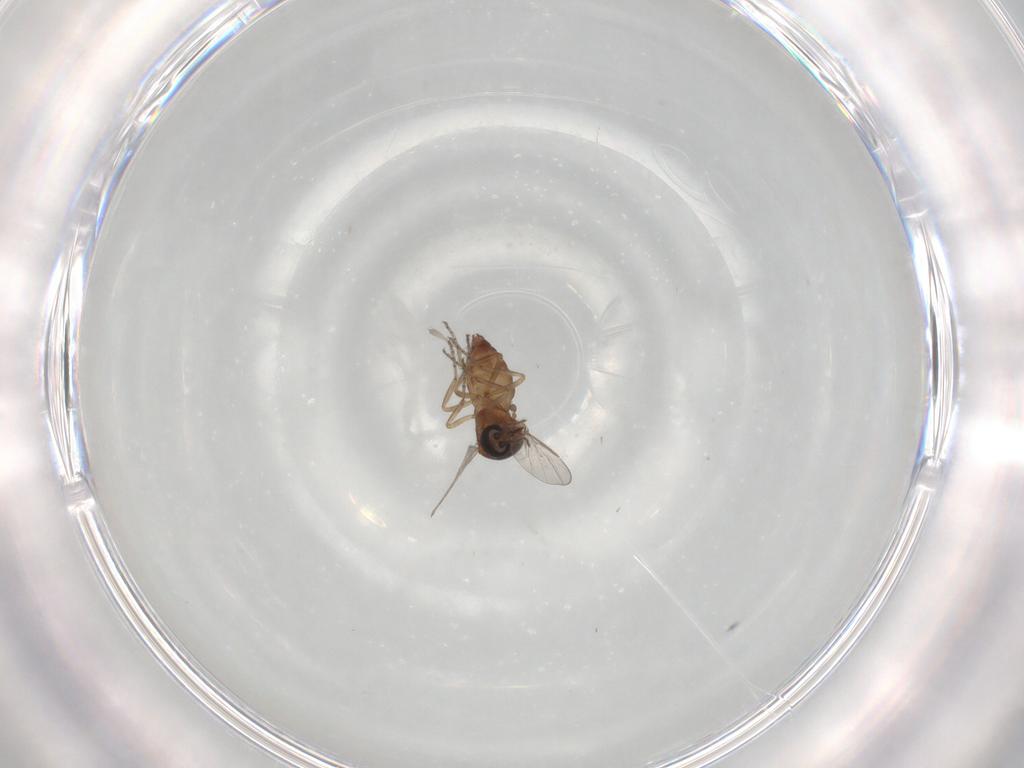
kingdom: Animalia
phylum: Arthropoda
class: Insecta
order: Diptera
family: Ceratopogonidae
